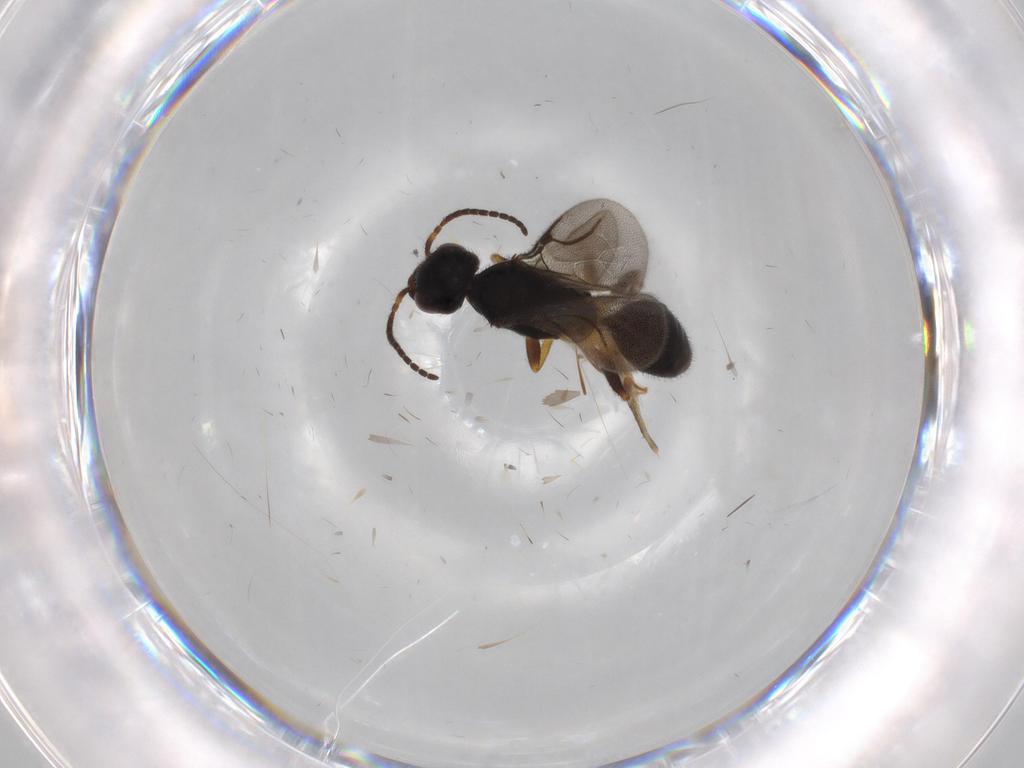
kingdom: Animalia
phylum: Arthropoda
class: Insecta
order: Hymenoptera
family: Bethylidae
